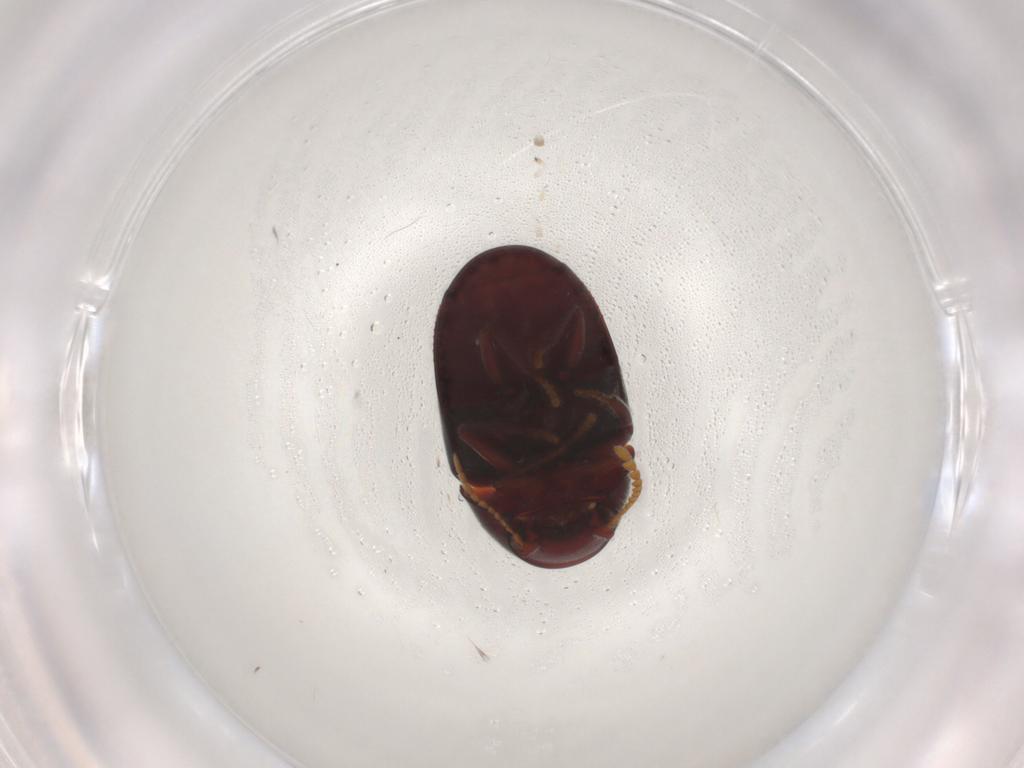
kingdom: Animalia
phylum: Arthropoda
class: Insecta
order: Coleoptera
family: Ptinidae
